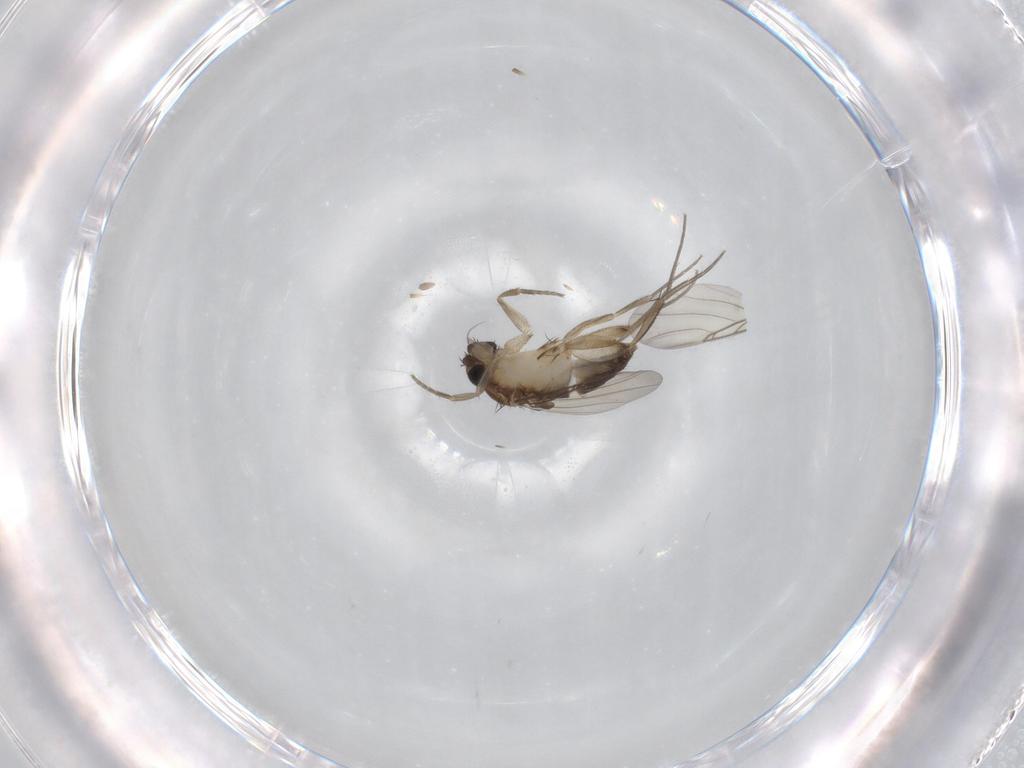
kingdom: Animalia
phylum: Arthropoda
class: Insecta
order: Diptera
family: Phoridae
